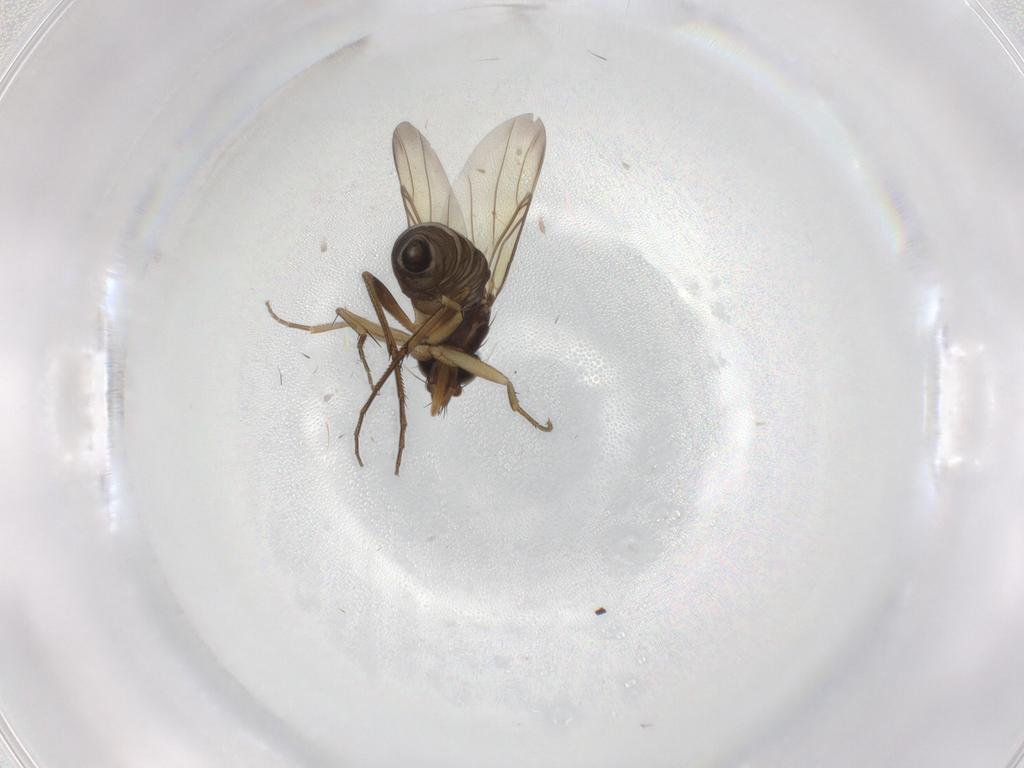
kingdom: Animalia
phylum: Arthropoda
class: Insecta
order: Diptera
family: Phoridae
